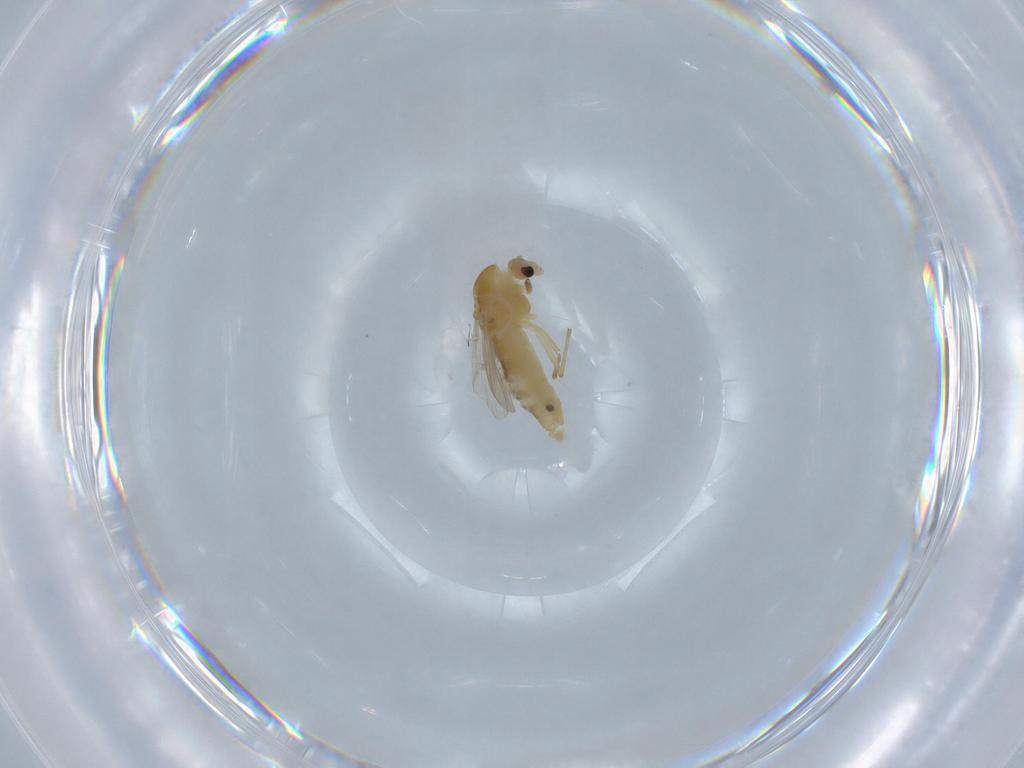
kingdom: Animalia
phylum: Arthropoda
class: Insecta
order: Diptera
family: Chironomidae
